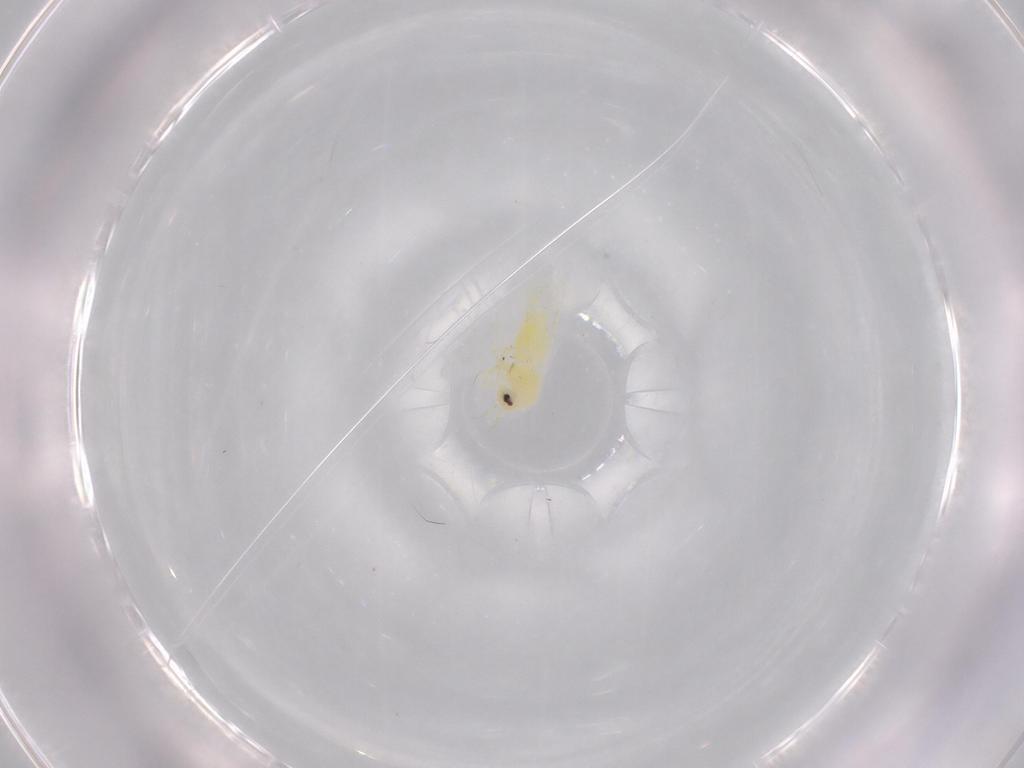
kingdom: Animalia
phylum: Arthropoda
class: Insecta
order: Hemiptera
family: Aleyrodidae
